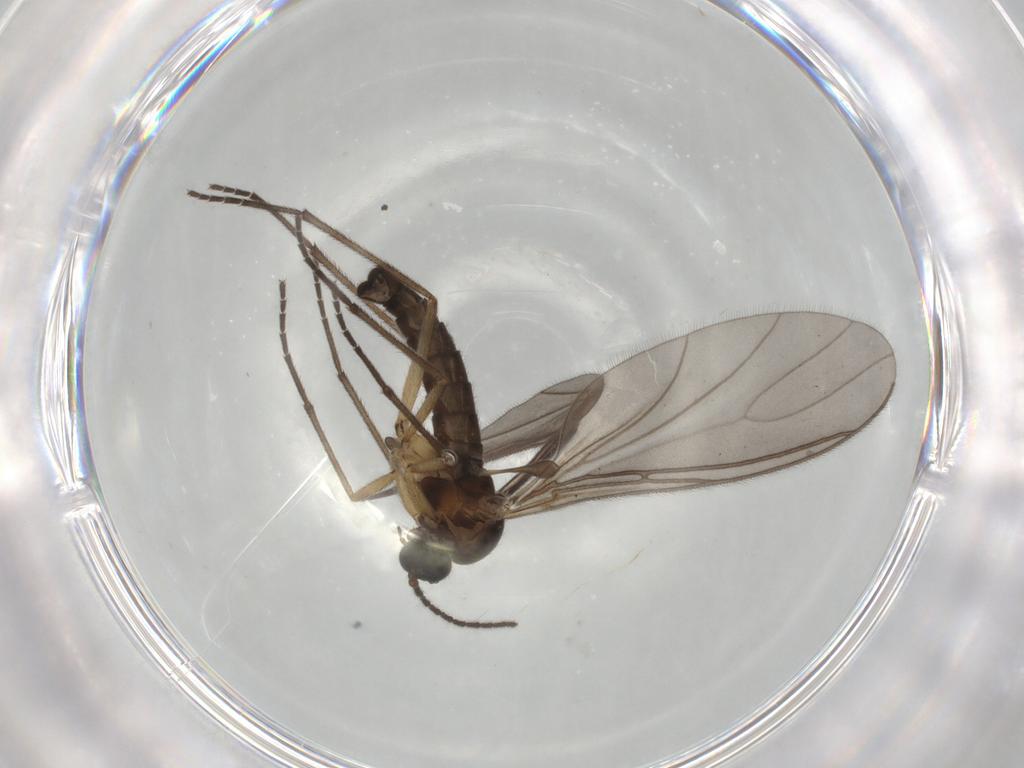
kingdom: Animalia
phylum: Arthropoda
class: Insecta
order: Diptera
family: Sciaridae
